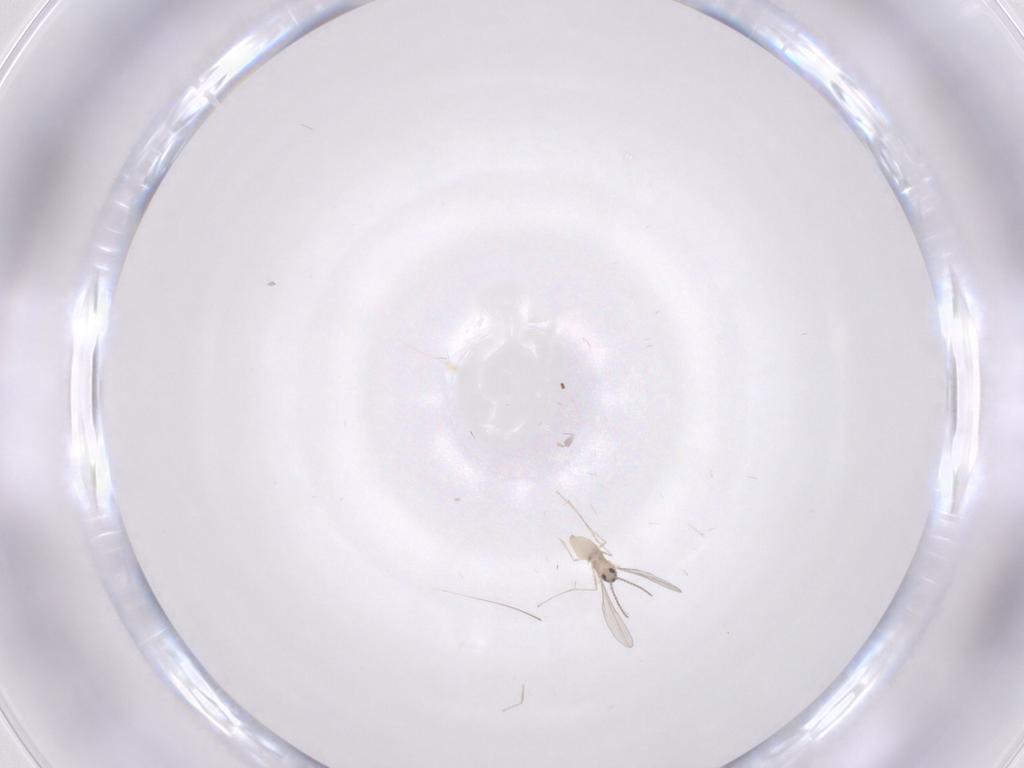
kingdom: Animalia
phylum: Arthropoda
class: Insecta
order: Diptera
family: Cecidomyiidae
